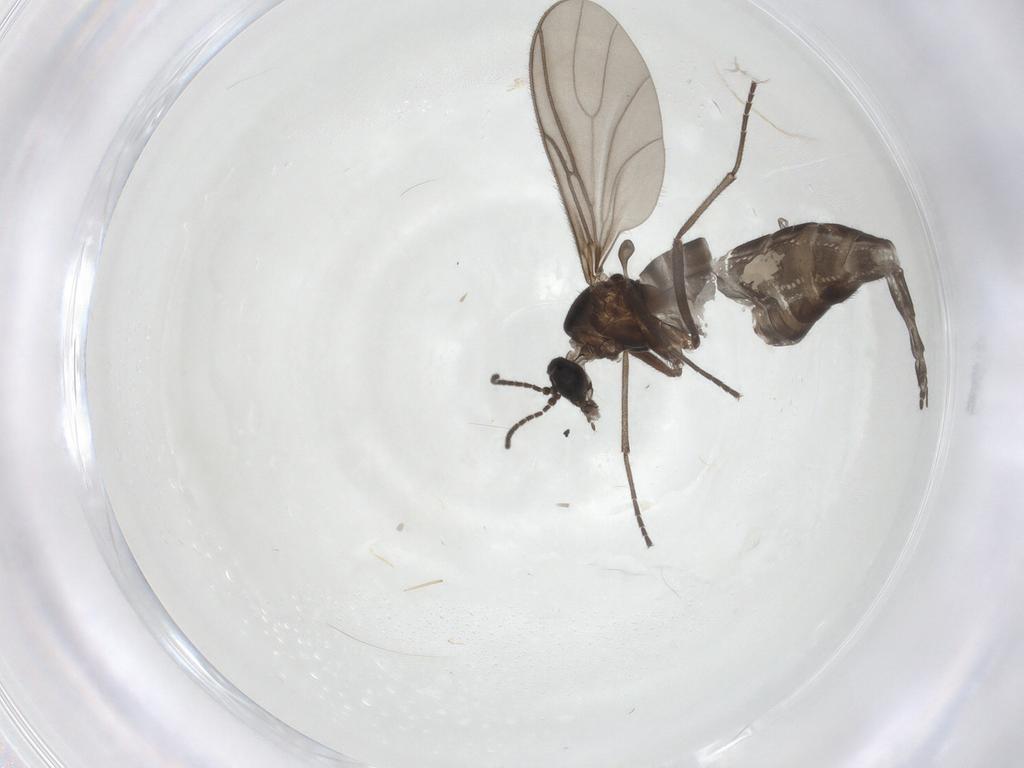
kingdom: Animalia
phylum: Arthropoda
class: Insecta
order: Diptera
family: Sciaridae
